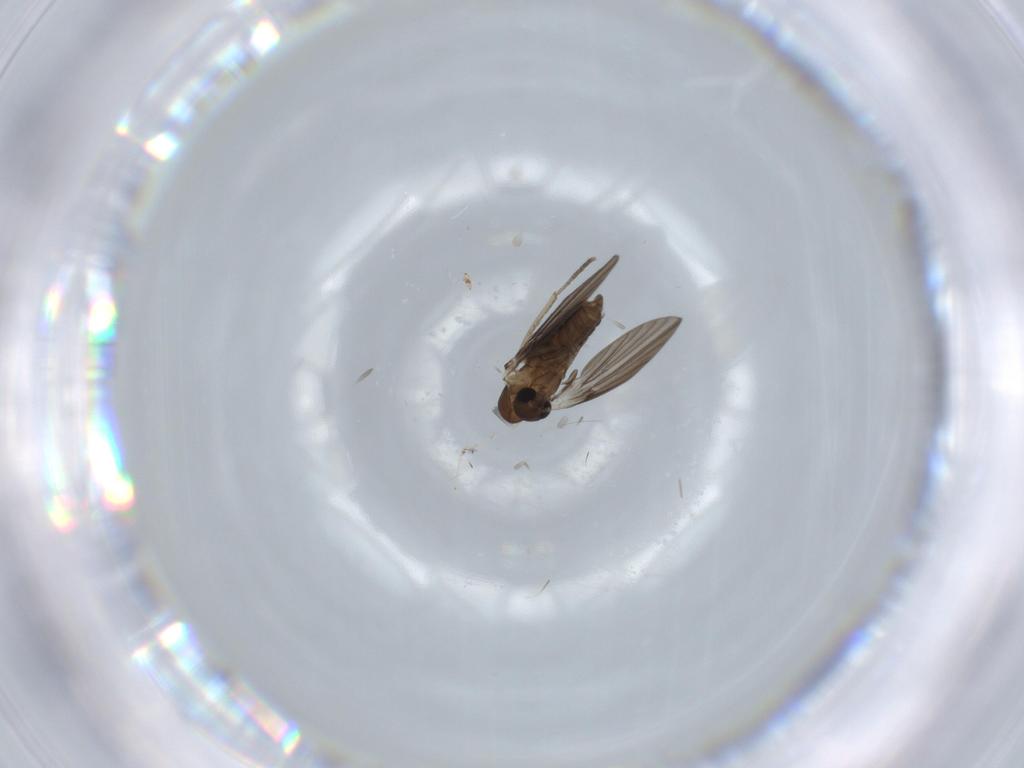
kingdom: Animalia
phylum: Arthropoda
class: Insecta
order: Diptera
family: Psychodidae
